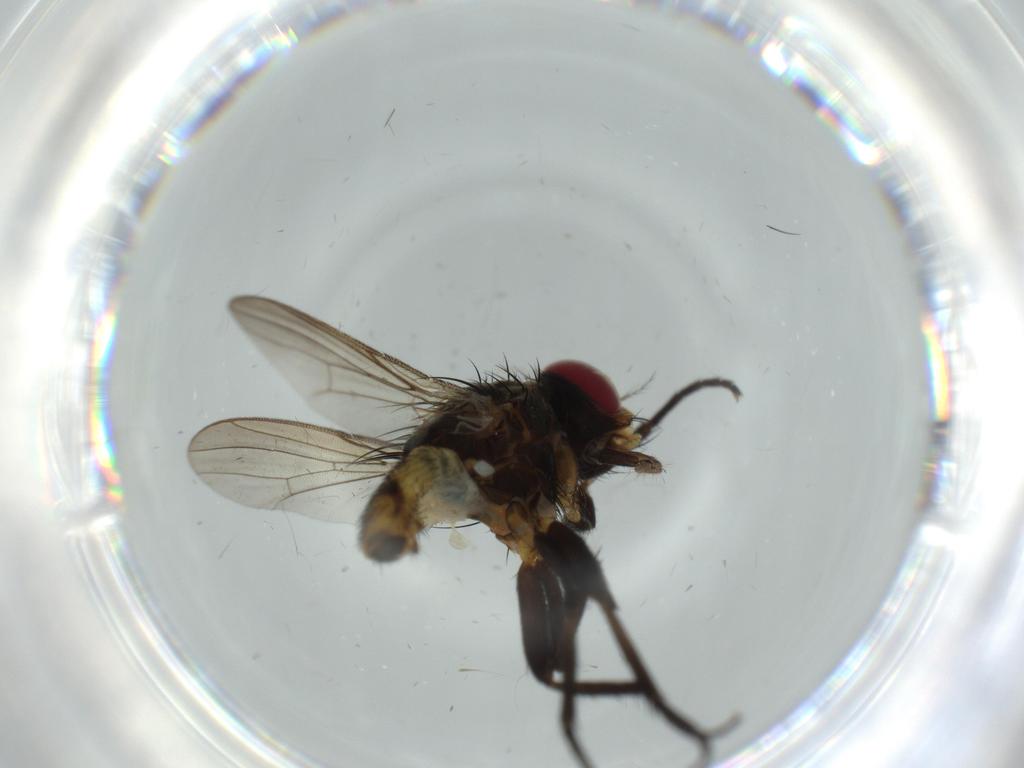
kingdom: Animalia
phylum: Arthropoda
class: Insecta
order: Diptera
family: Anthomyiidae
